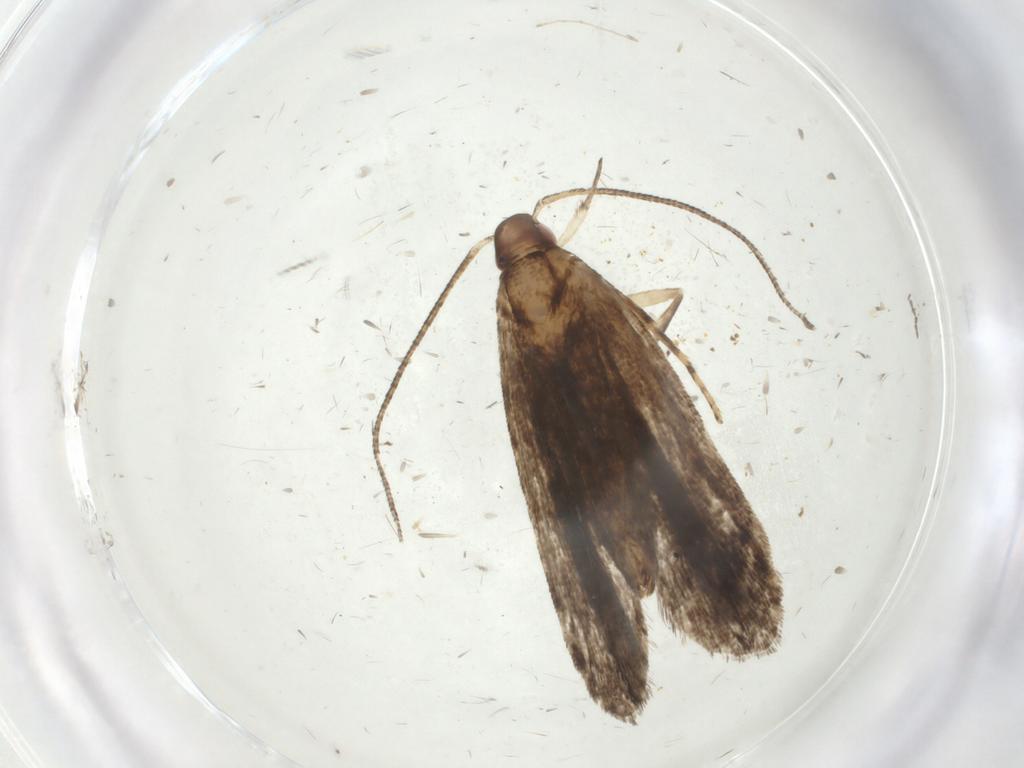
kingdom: Animalia
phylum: Arthropoda
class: Insecta
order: Lepidoptera
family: Gelechiidae
